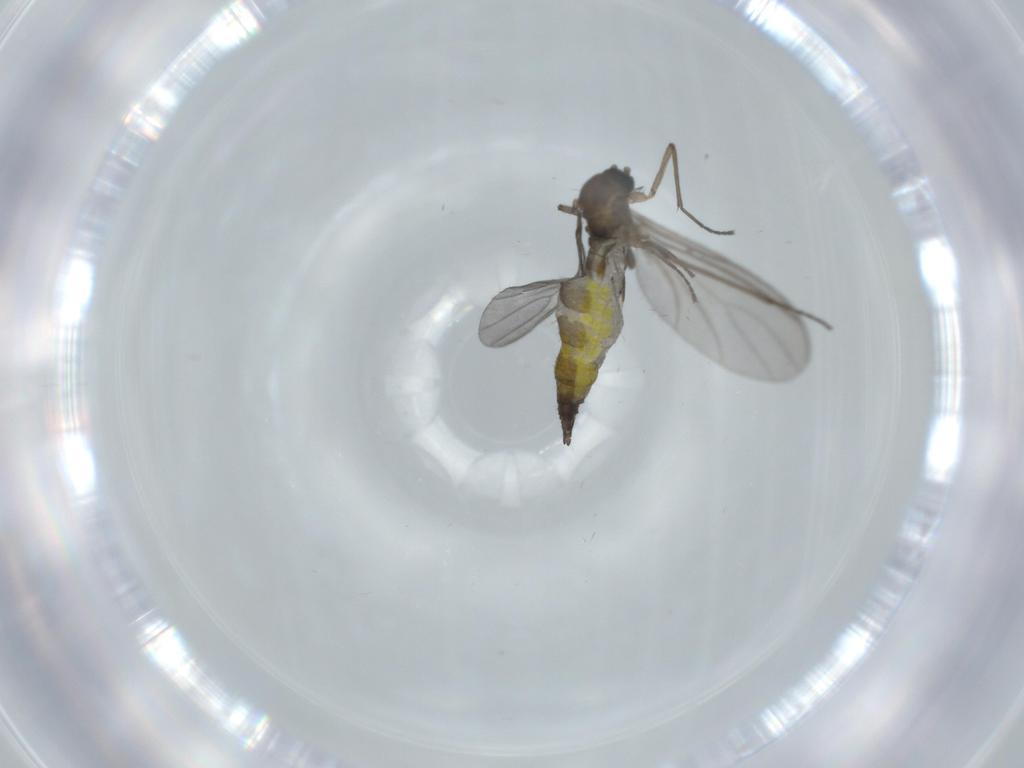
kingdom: Animalia
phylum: Arthropoda
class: Insecta
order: Diptera
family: Sciaridae
